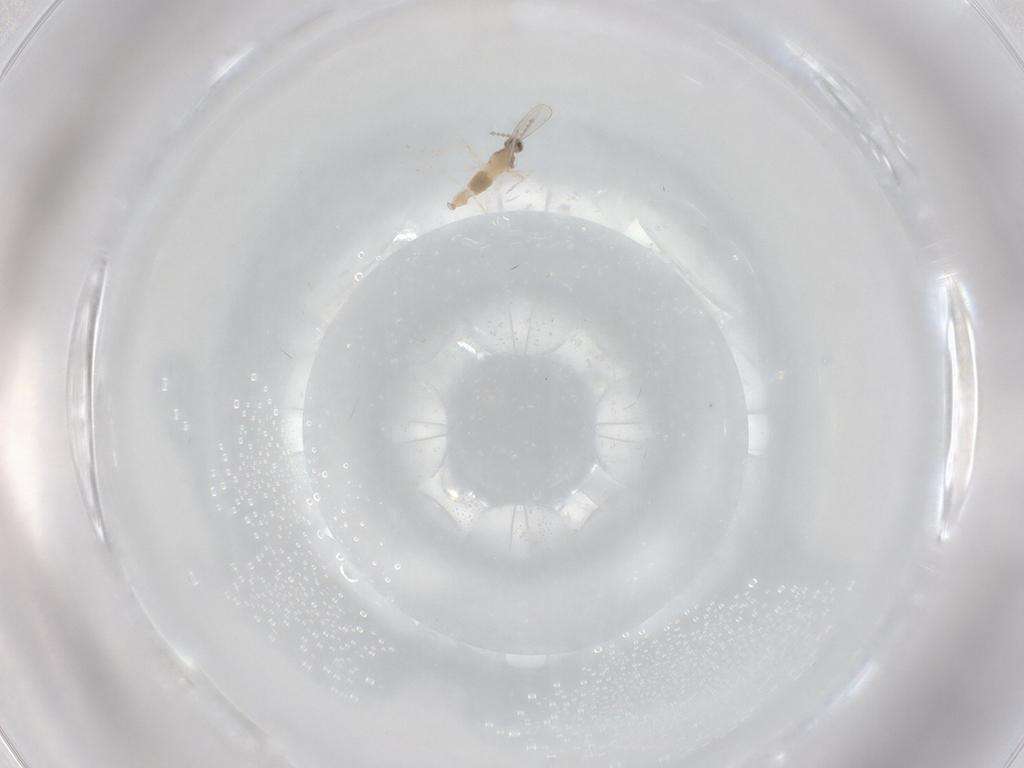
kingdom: Animalia
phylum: Arthropoda
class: Insecta
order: Diptera
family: Cecidomyiidae
